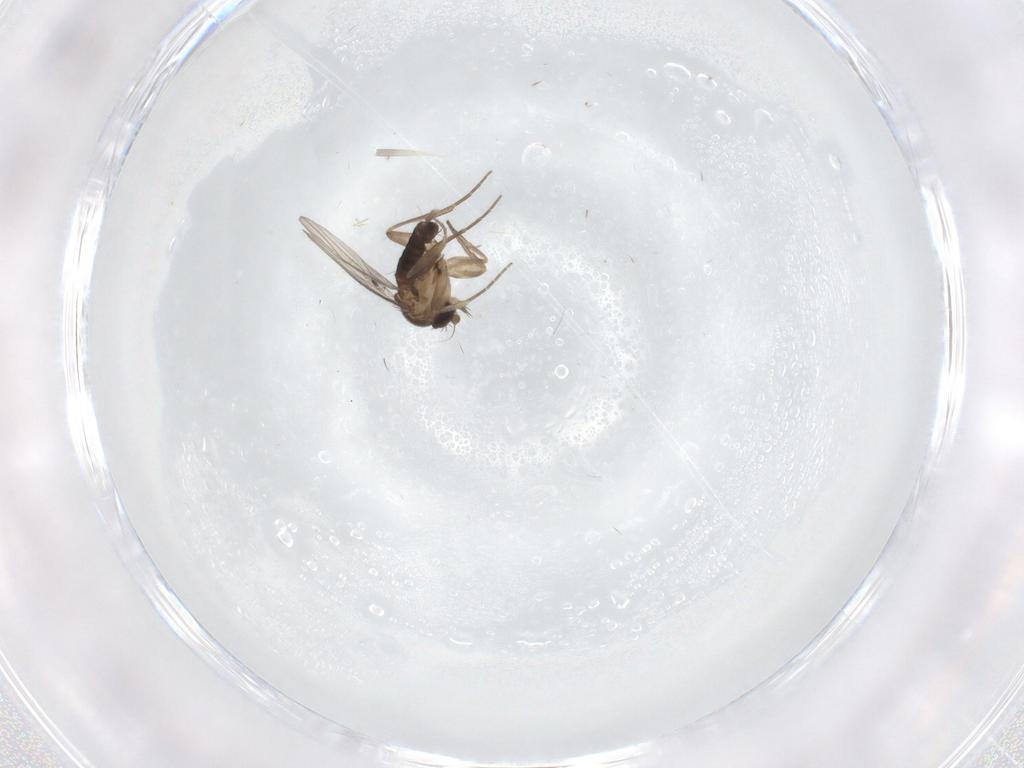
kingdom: Animalia
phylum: Arthropoda
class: Insecta
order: Diptera
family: Phoridae
